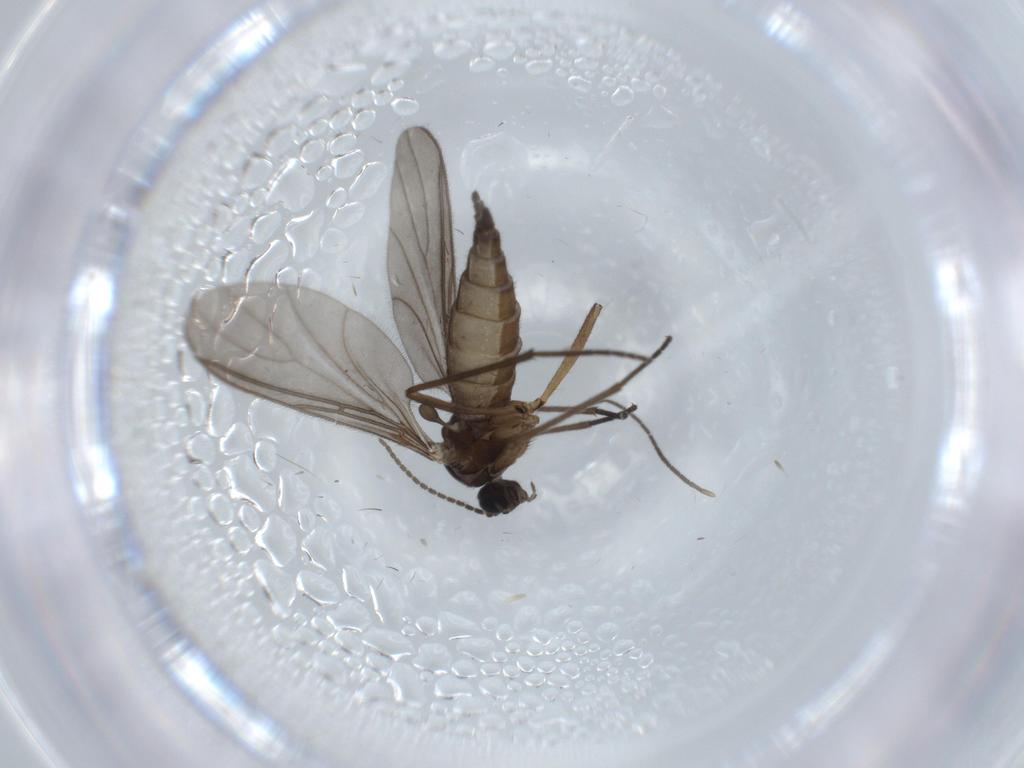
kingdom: Animalia
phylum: Arthropoda
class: Insecta
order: Diptera
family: Sciaridae
